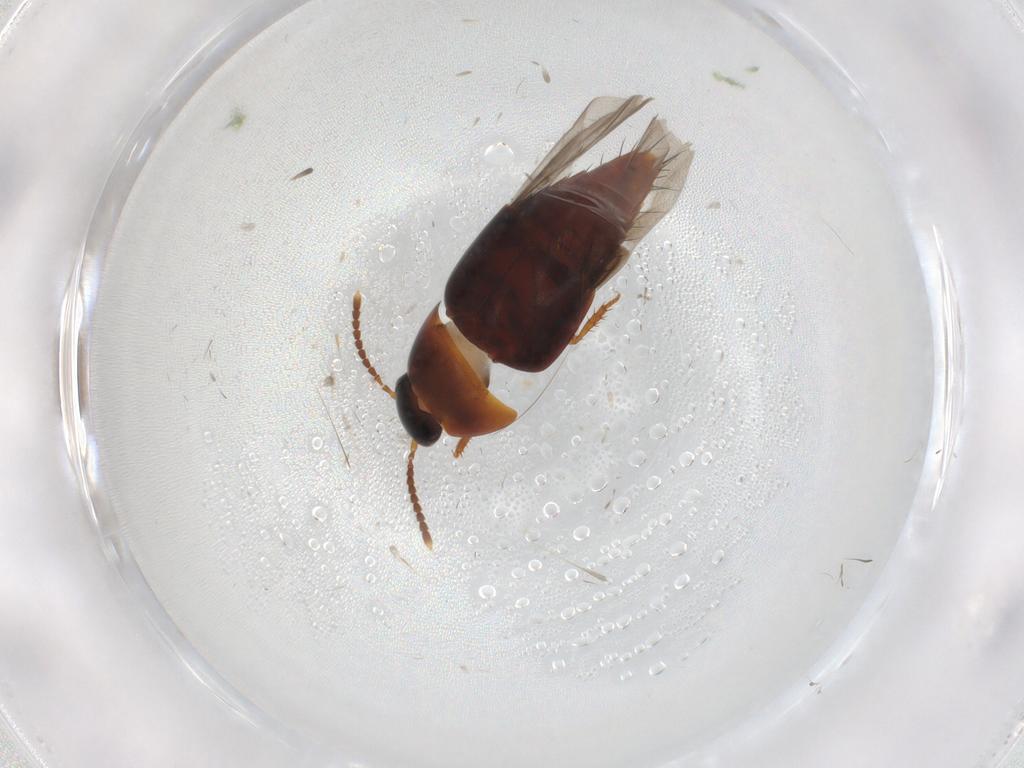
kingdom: Animalia
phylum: Arthropoda
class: Insecta
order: Coleoptera
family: Staphylinidae
